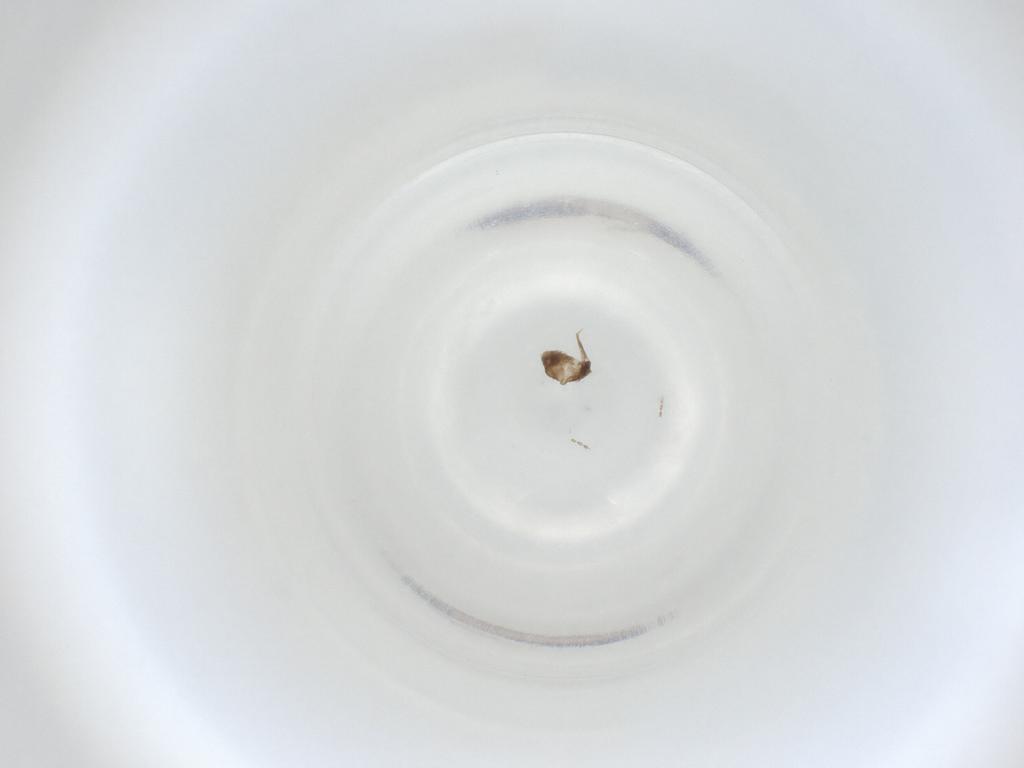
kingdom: Animalia
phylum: Arthropoda
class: Insecta
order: Diptera
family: Cecidomyiidae
